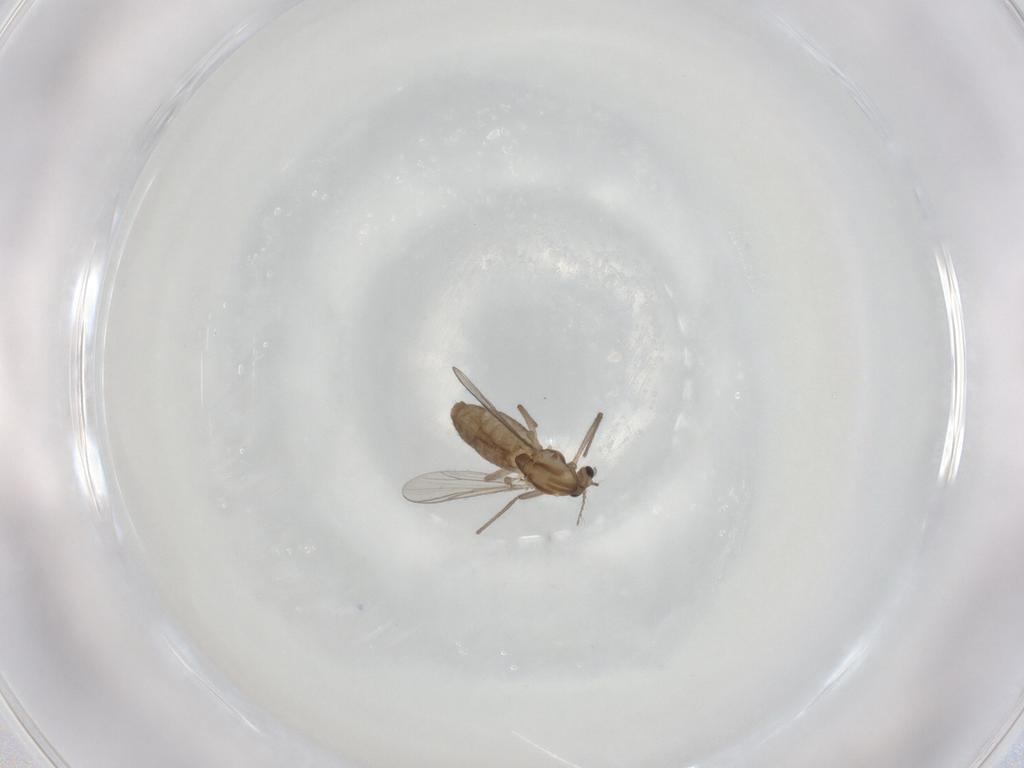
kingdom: Animalia
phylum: Arthropoda
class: Insecta
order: Diptera
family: Chironomidae
